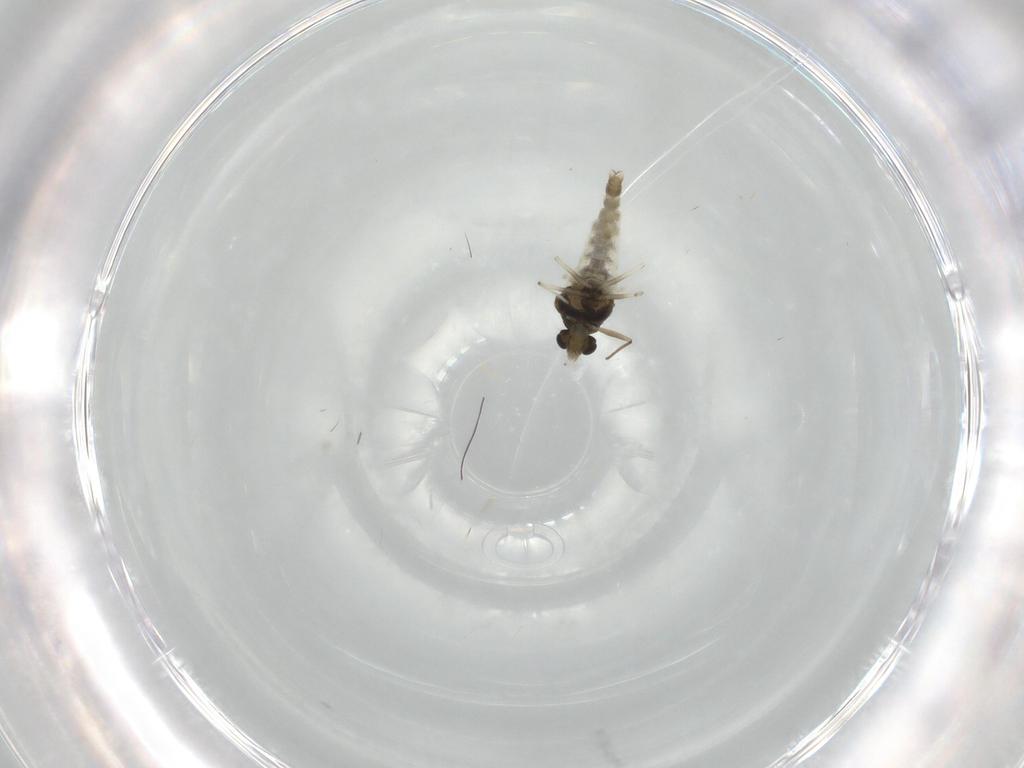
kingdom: Animalia
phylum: Arthropoda
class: Insecta
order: Diptera
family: Chironomidae
